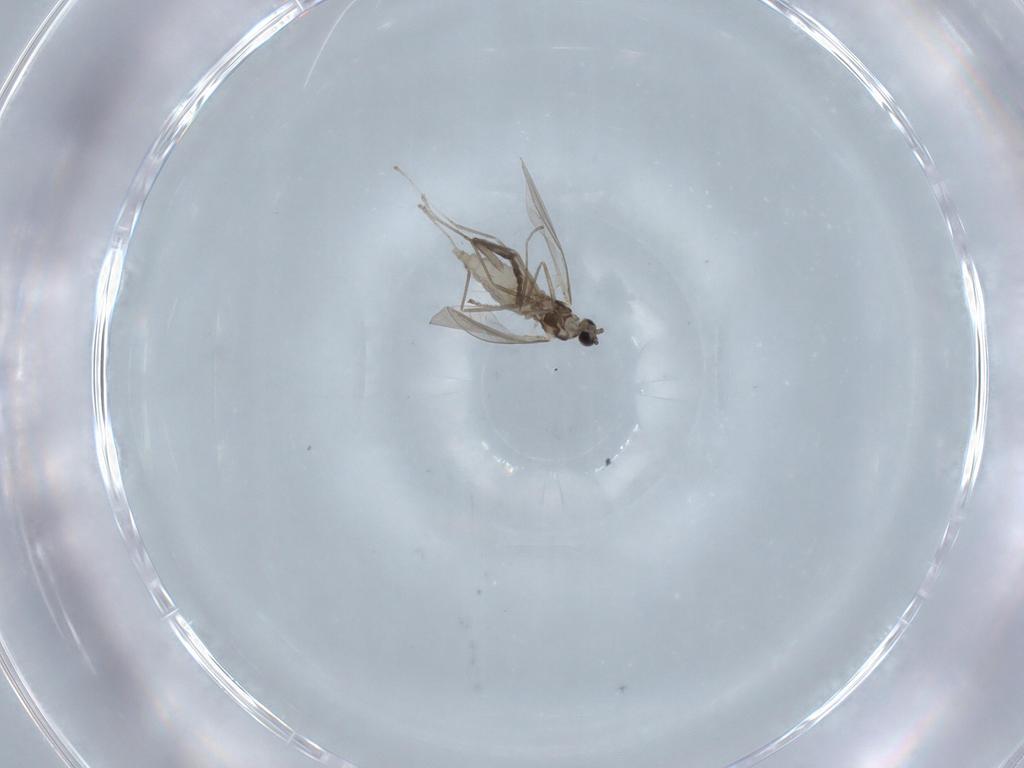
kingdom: Animalia
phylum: Arthropoda
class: Insecta
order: Diptera
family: Cecidomyiidae
